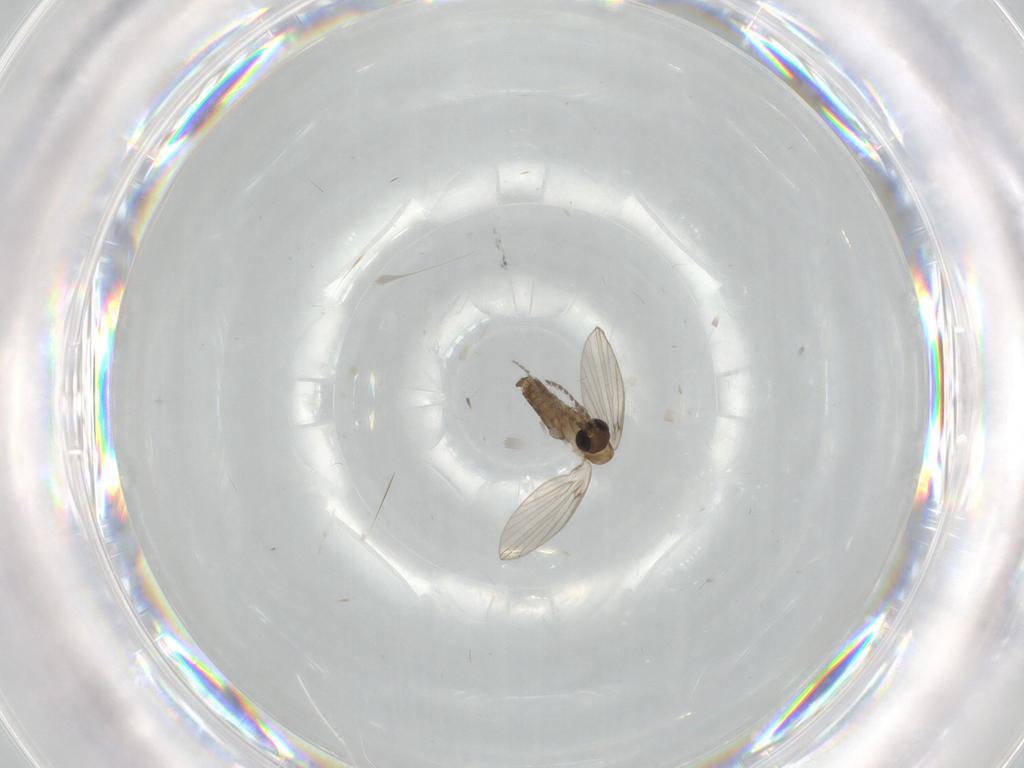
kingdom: Animalia
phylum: Arthropoda
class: Insecta
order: Diptera
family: Psychodidae
